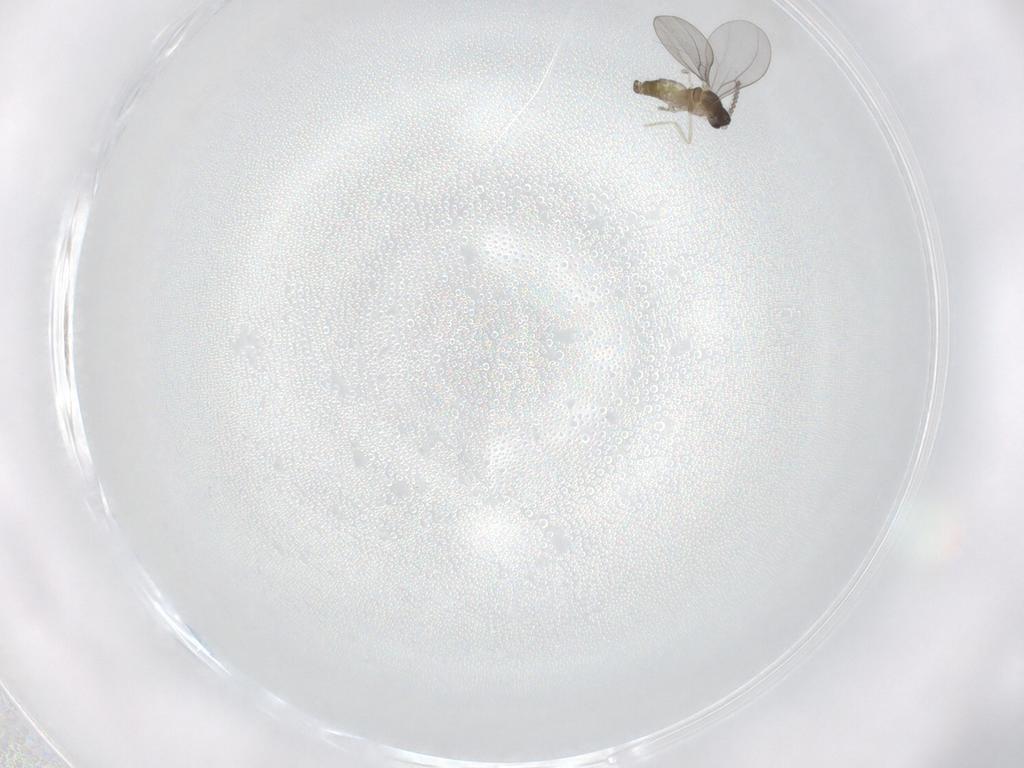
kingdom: Animalia
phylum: Arthropoda
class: Insecta
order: Diptera
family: Cecidomyiidae
